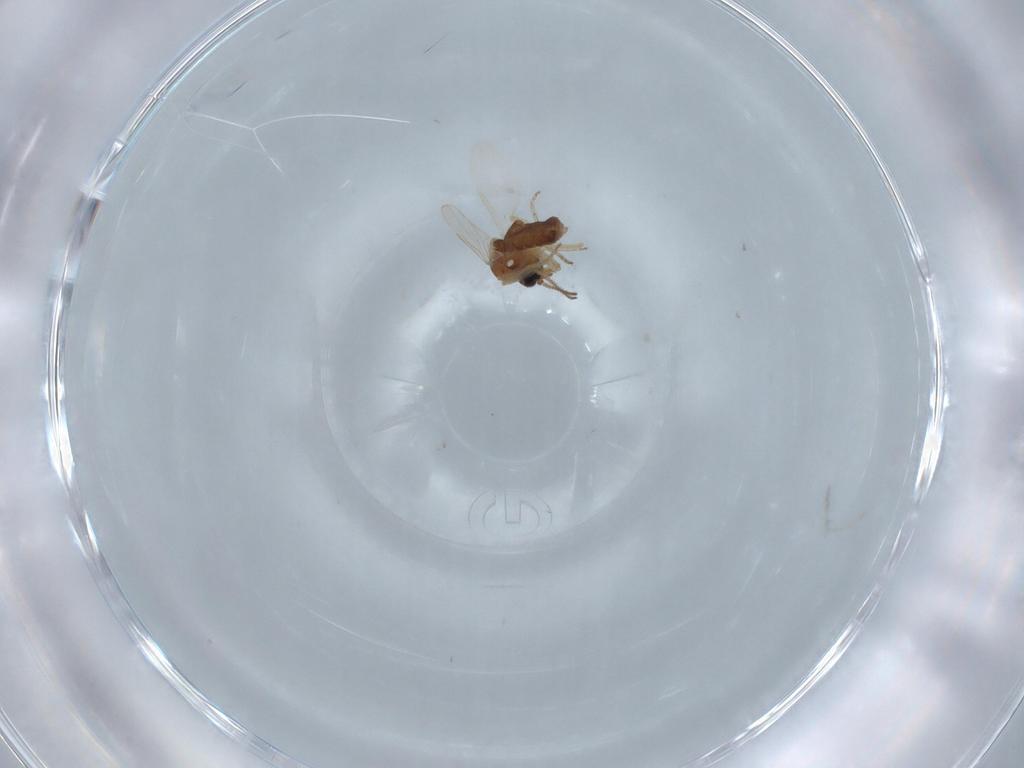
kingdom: Animalia
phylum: Arthropoda
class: Insecta
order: Diptera
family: Ceratopogonidae
